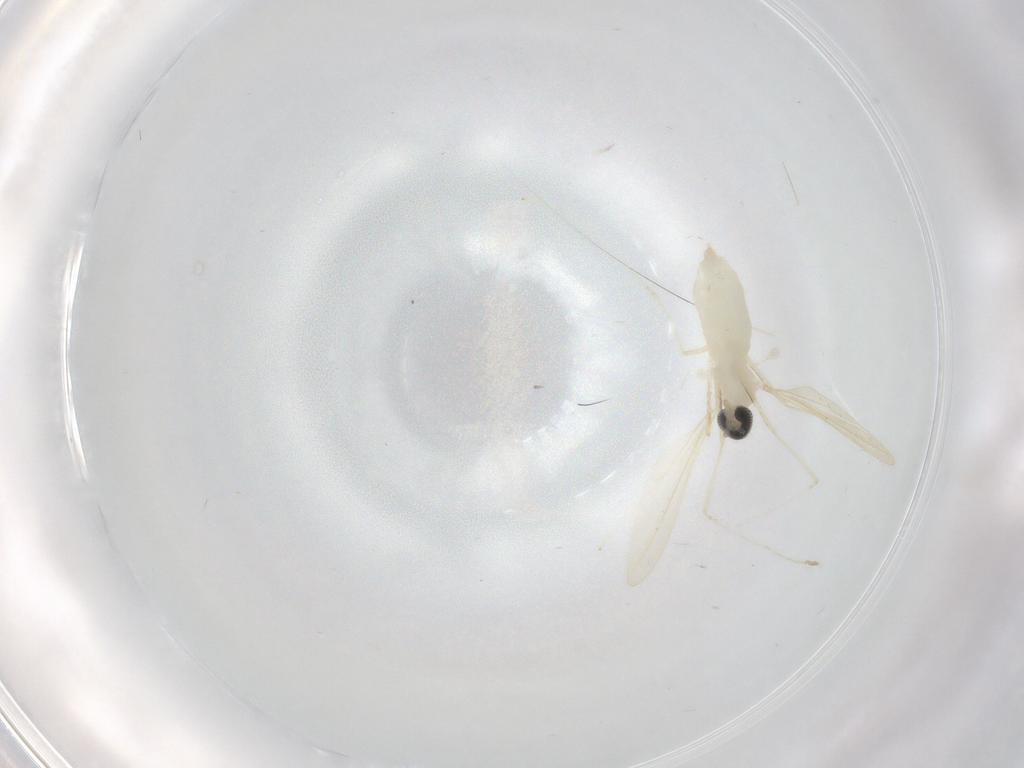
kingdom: Animalia
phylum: Arthropoda
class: Insecta
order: Diptera
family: Cecidomyiidae
